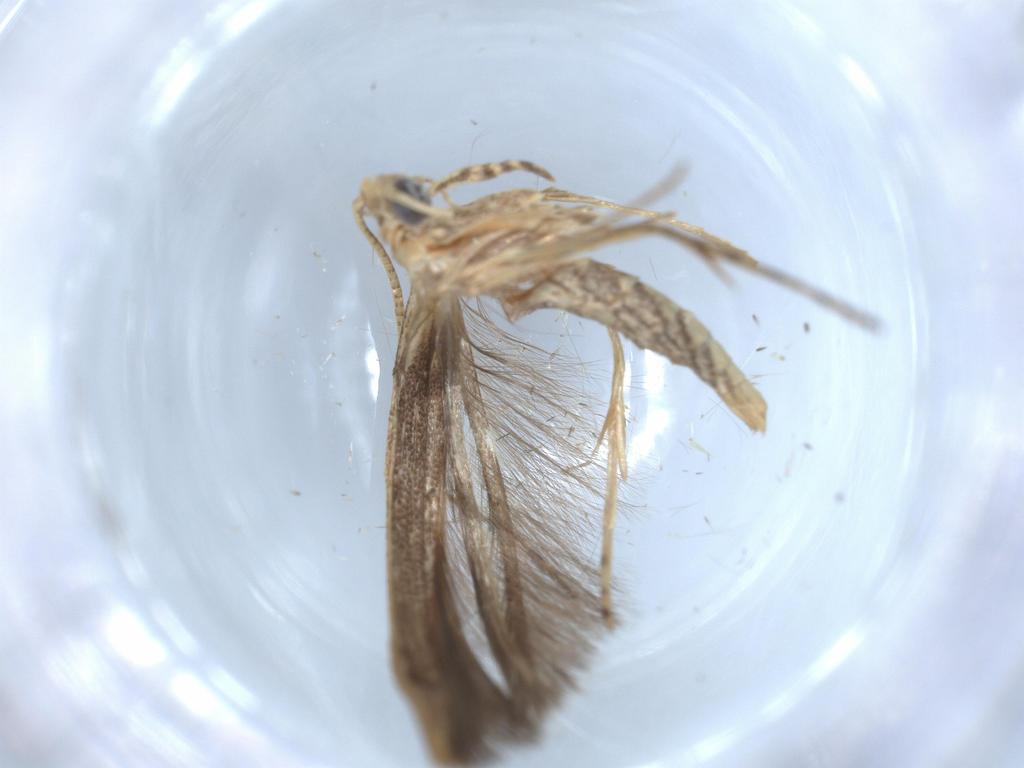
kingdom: Animalia
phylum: Arthropoda
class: Insecta
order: Lepidoptera
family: Batrachedridae
